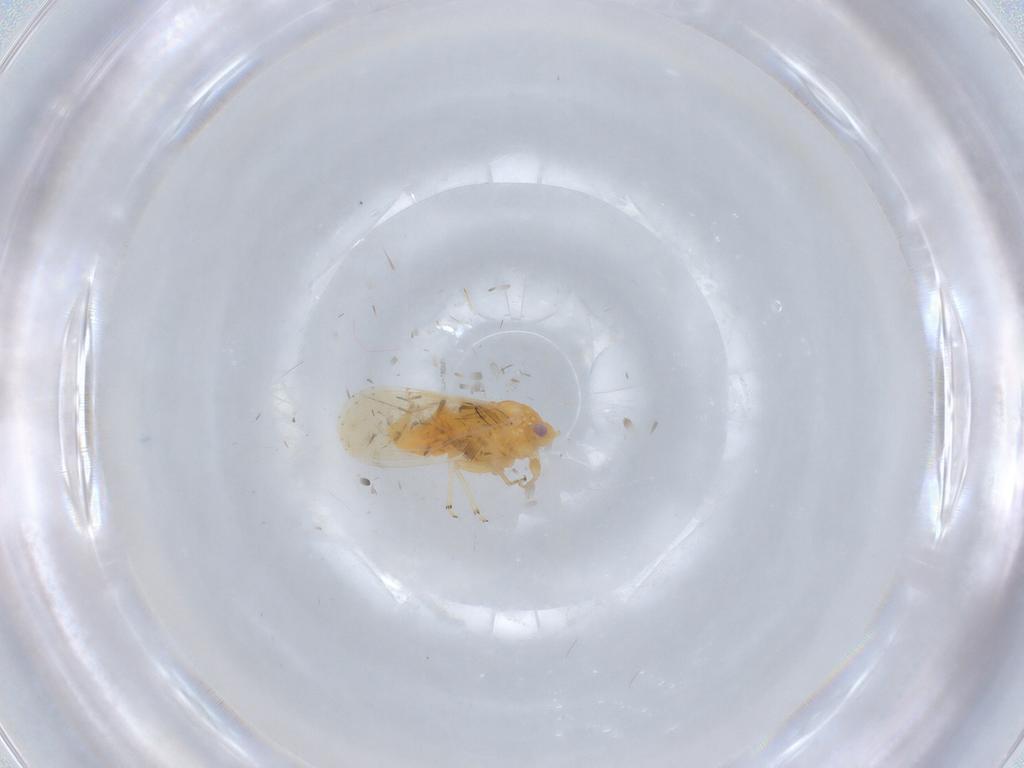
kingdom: Animalia
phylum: Arthropoda
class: Insecta
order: Hemiptera
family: Psyllidae
